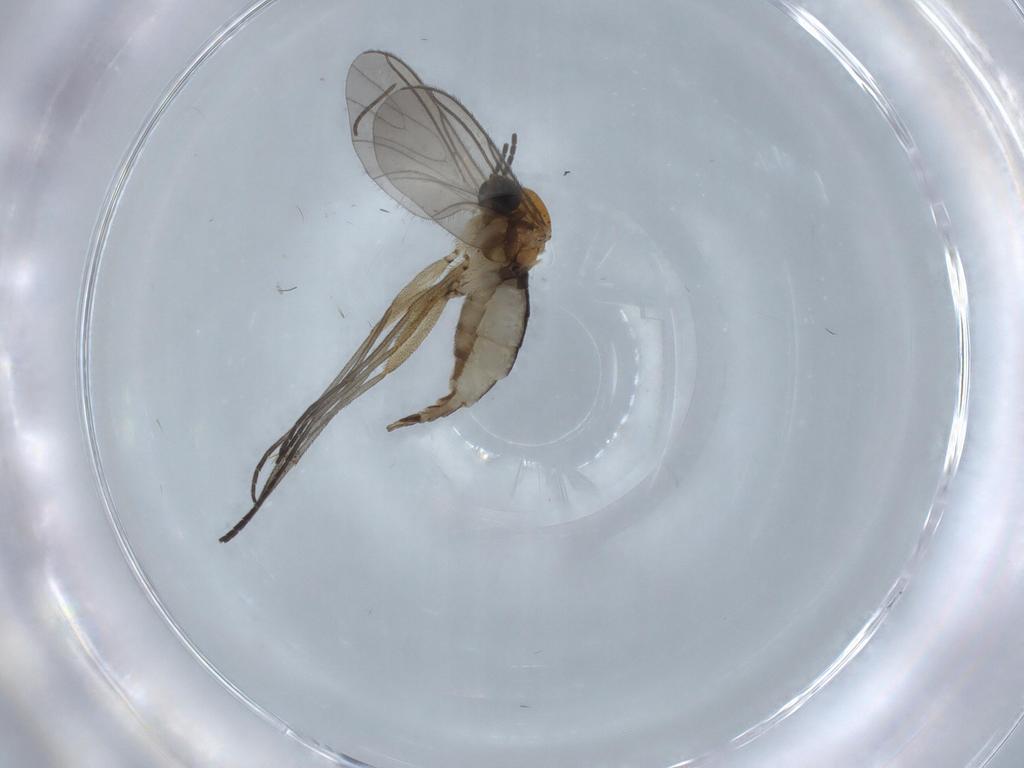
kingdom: Animalia
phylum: Arthropoda
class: Insecta
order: Diptera
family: Sciaridae
